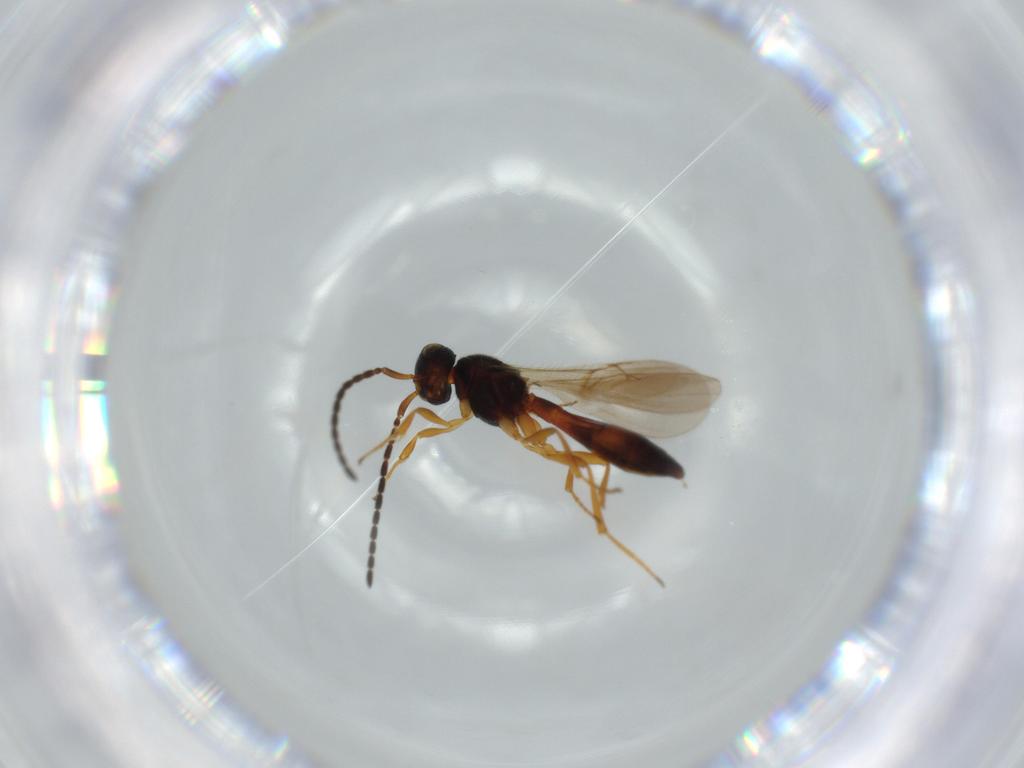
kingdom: Animalia
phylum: Arthropoda
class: Insecta
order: Hymenoptera
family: Scelionidae
